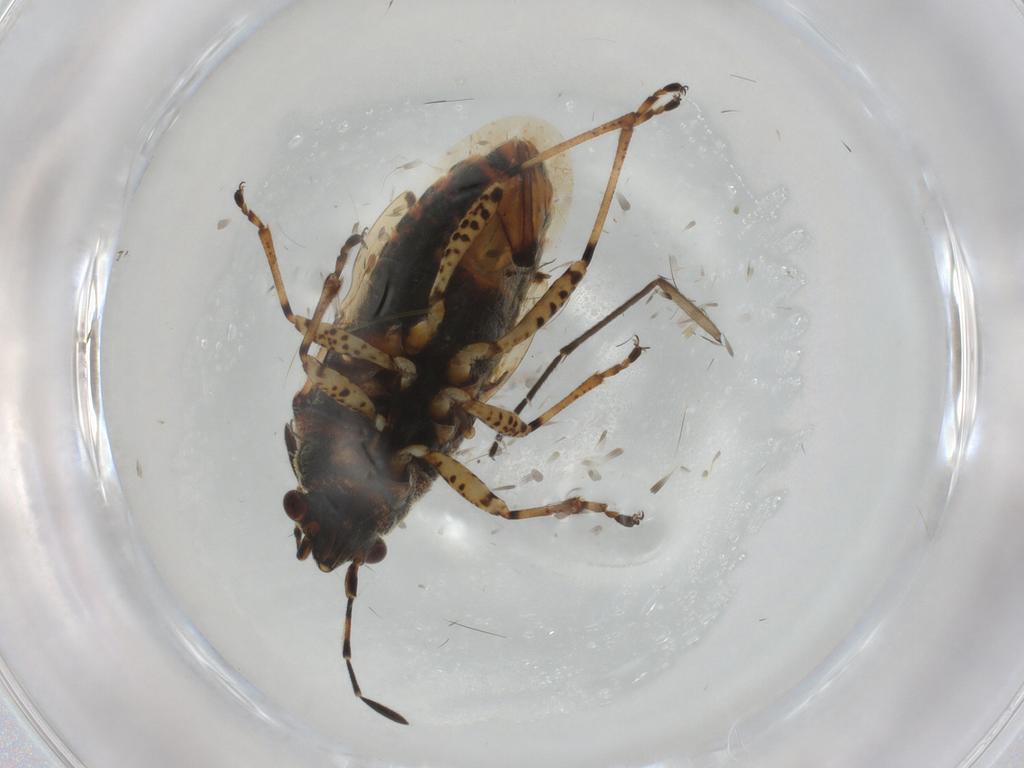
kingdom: Animalia
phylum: Arthropoda
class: Insecta
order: Hemiptera
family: Lygaeidae
